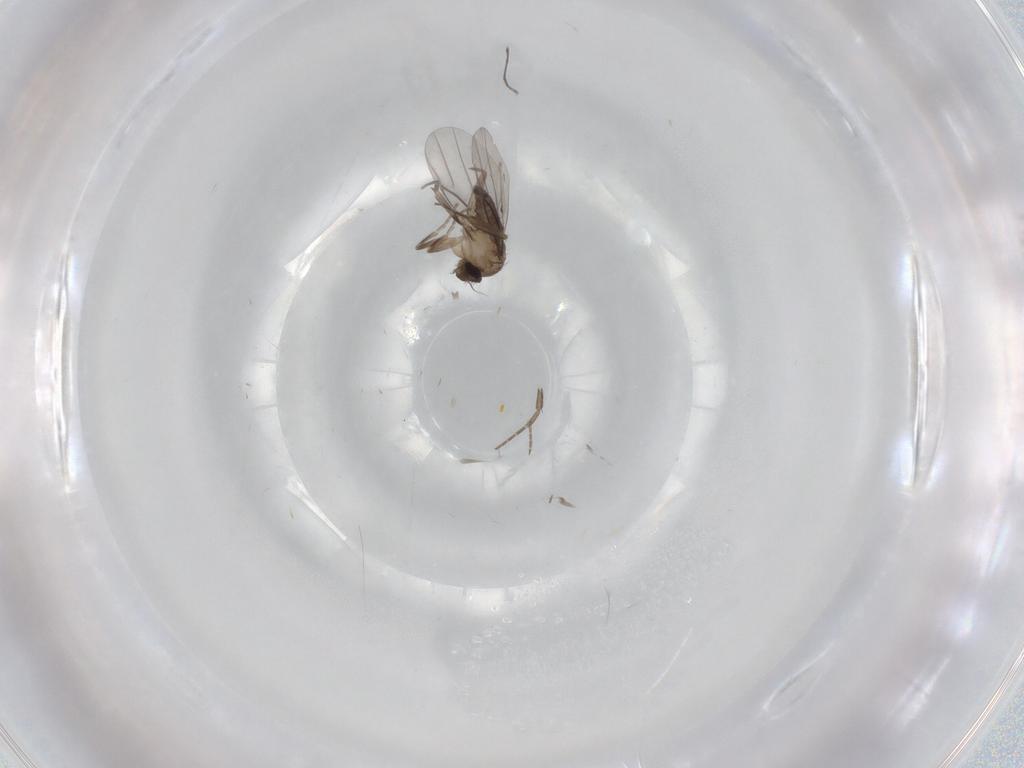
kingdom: Animalia
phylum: Arthropoda
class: Insecta
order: Diptera
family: Phoridae
